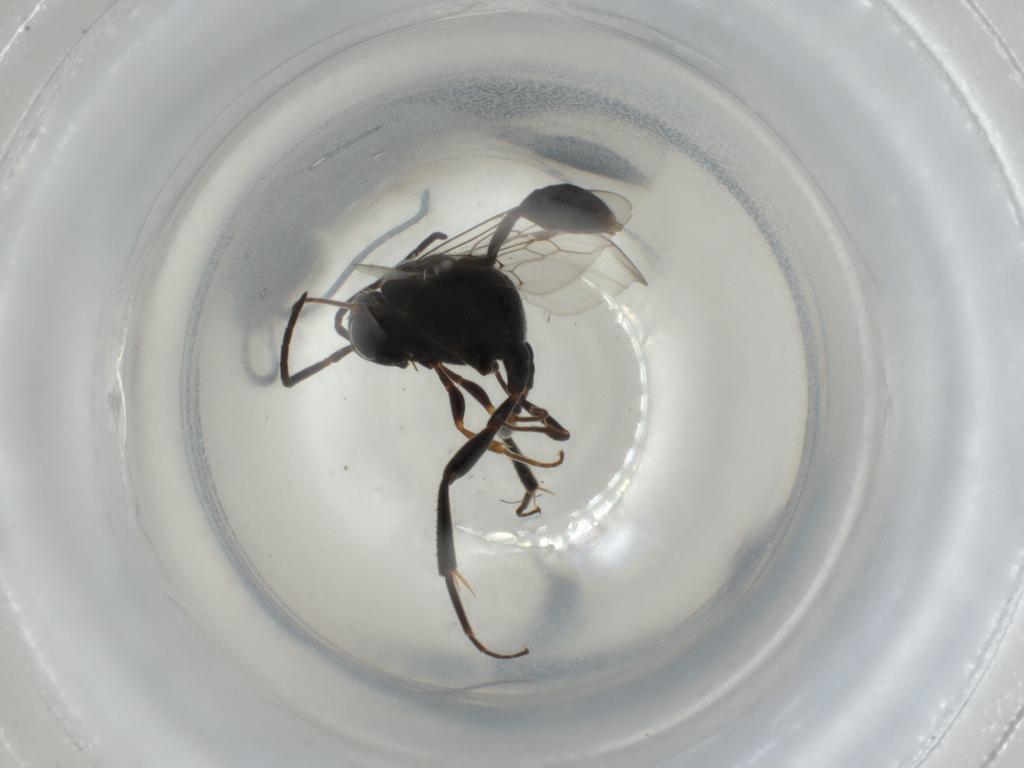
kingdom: Animalia
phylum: Arthropoda
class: Insecta
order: Hymenoptera
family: Evaniidae
